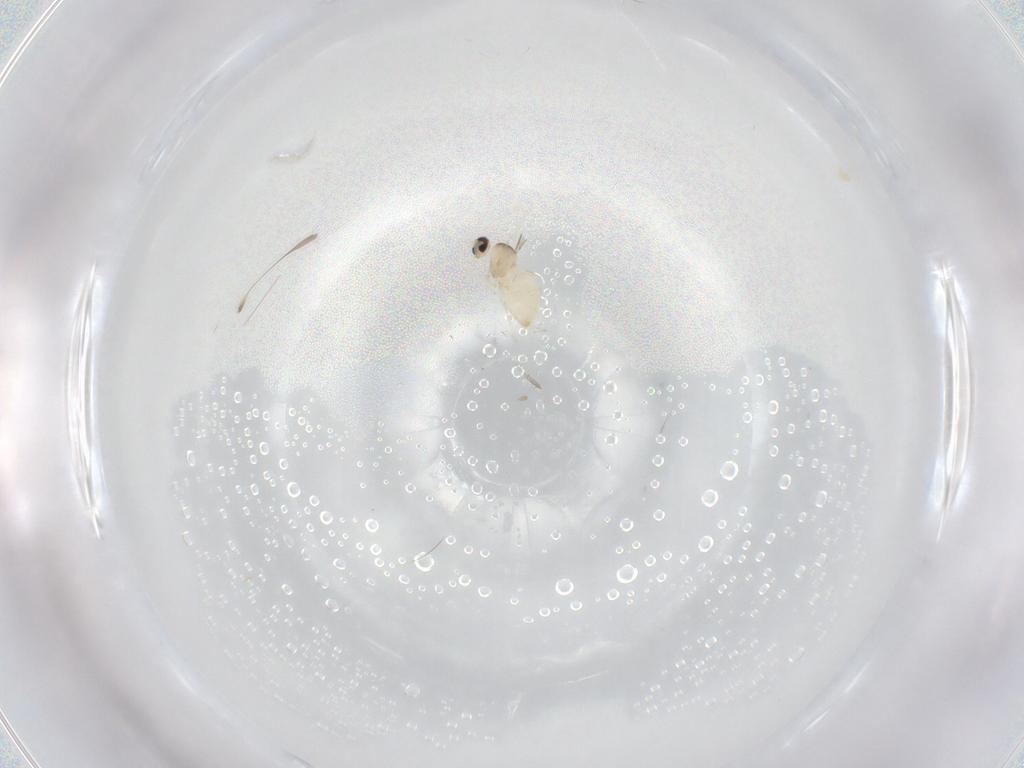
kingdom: Animalia
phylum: Arthropoda
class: Insecta
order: Diptera
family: Cecidomyiidae
